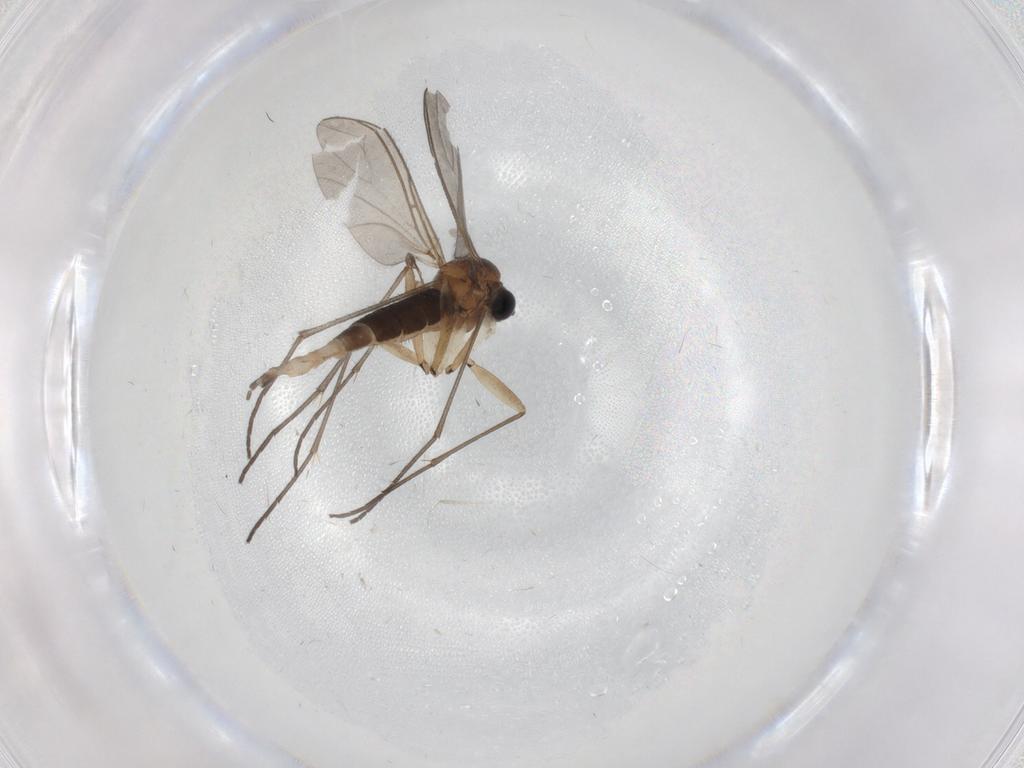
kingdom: Animalia
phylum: Arthropoda
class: Insecta
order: Diptera
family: Sciaridae
